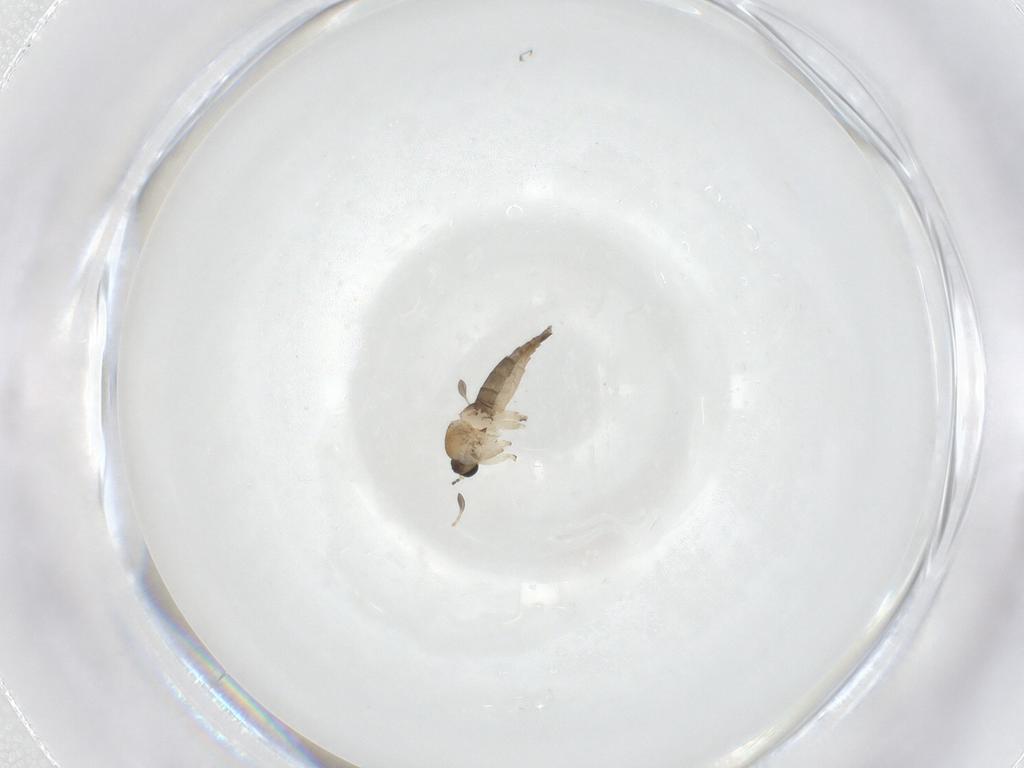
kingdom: Animalia
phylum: Arthropoda
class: Insecta
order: Diptera
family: Sciaridae
